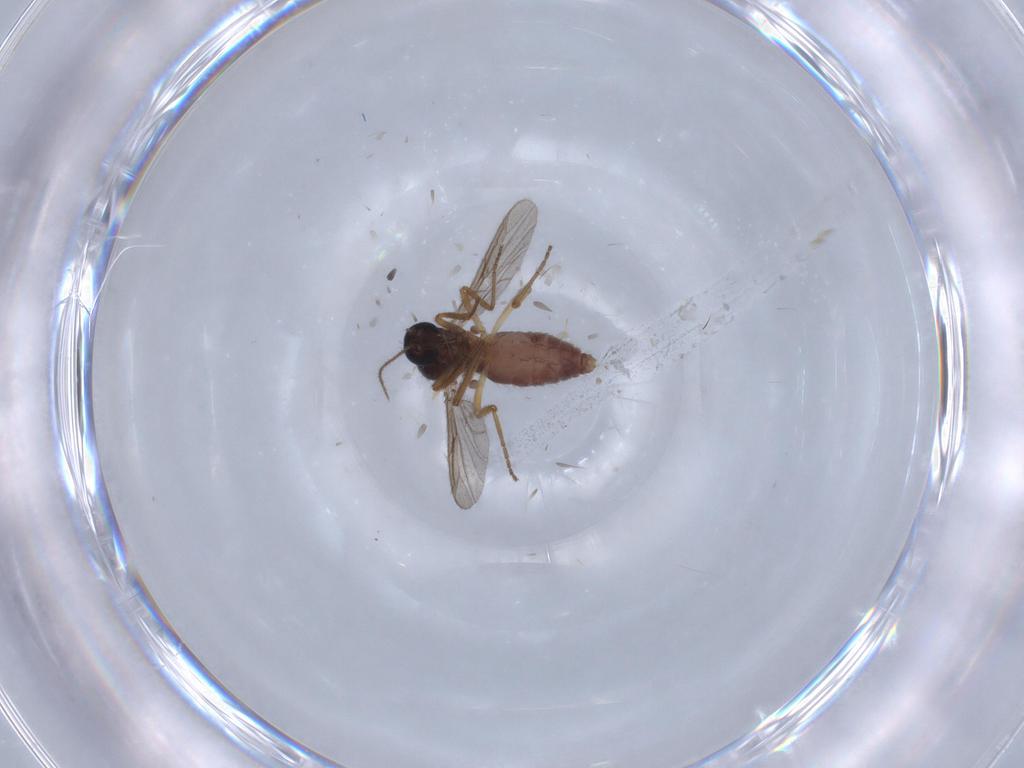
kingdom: Animalia
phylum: Arthropoda
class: Insecta
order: Diptera
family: Ceratopogonidae
